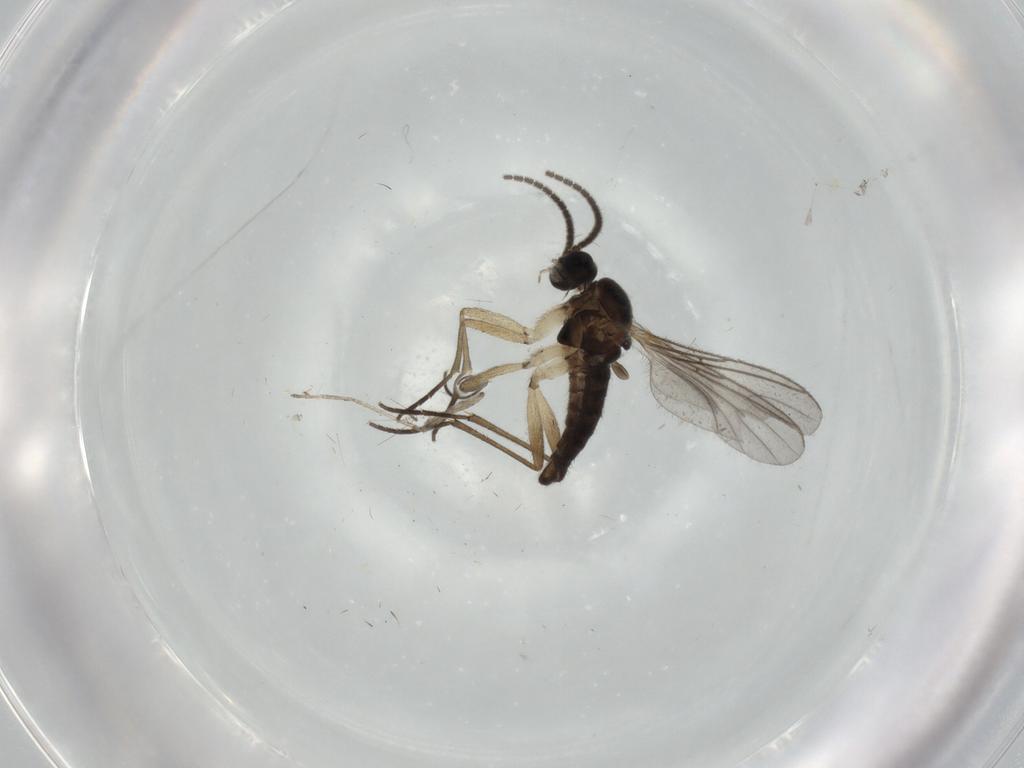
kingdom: Animalia
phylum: Arthropoda
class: Insecta
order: Diptera
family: Sciaridae
